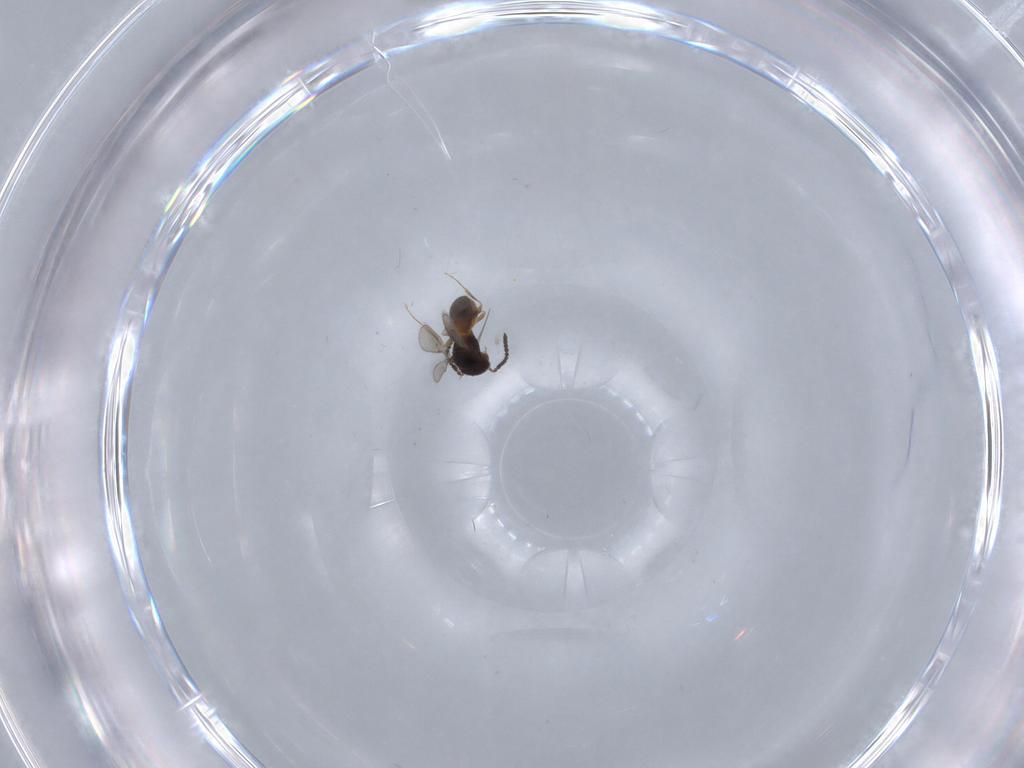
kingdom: Animalia
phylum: Arthropoda
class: Insecta
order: Hymenoptera
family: Scelionidae
